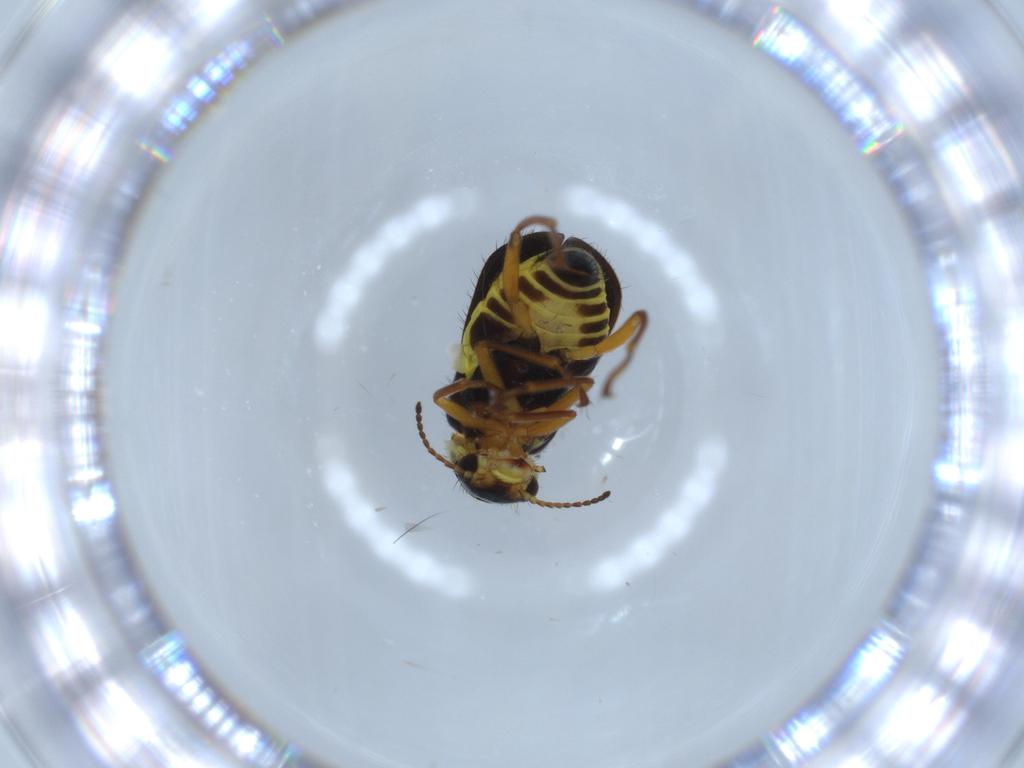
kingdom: Animalia
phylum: Arthropoda
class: Insecta
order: Coleoptera
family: Melyridae
